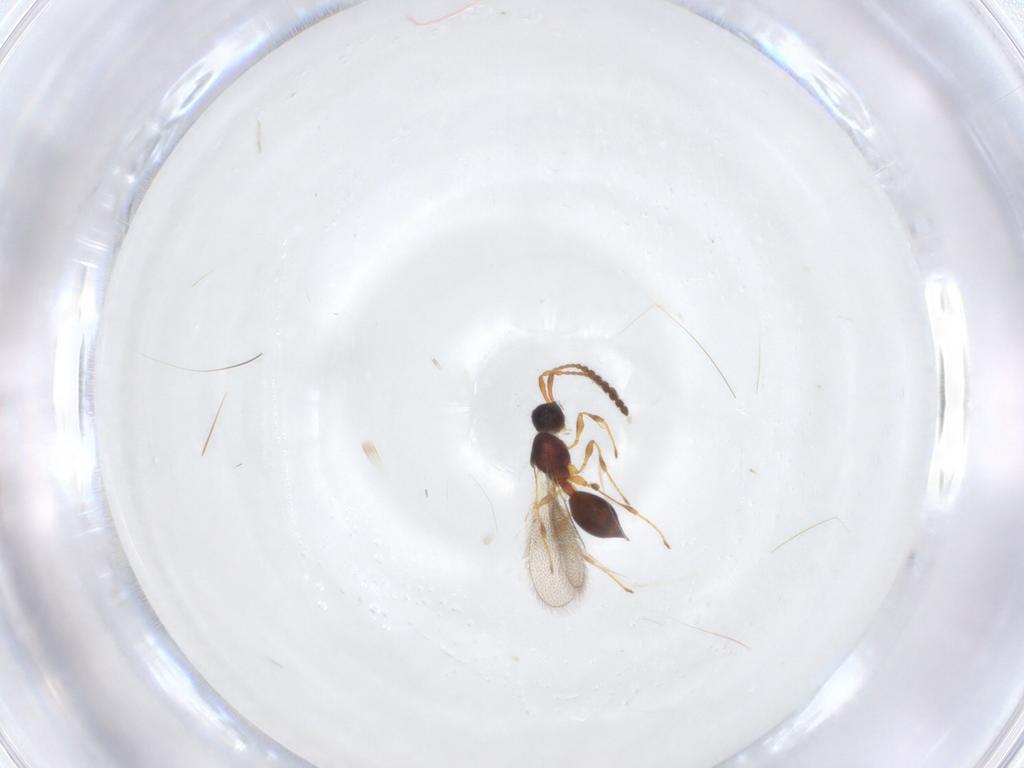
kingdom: Animalia
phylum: Arthropoda
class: Insecta
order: Hymenoptera
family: Diapriidae
